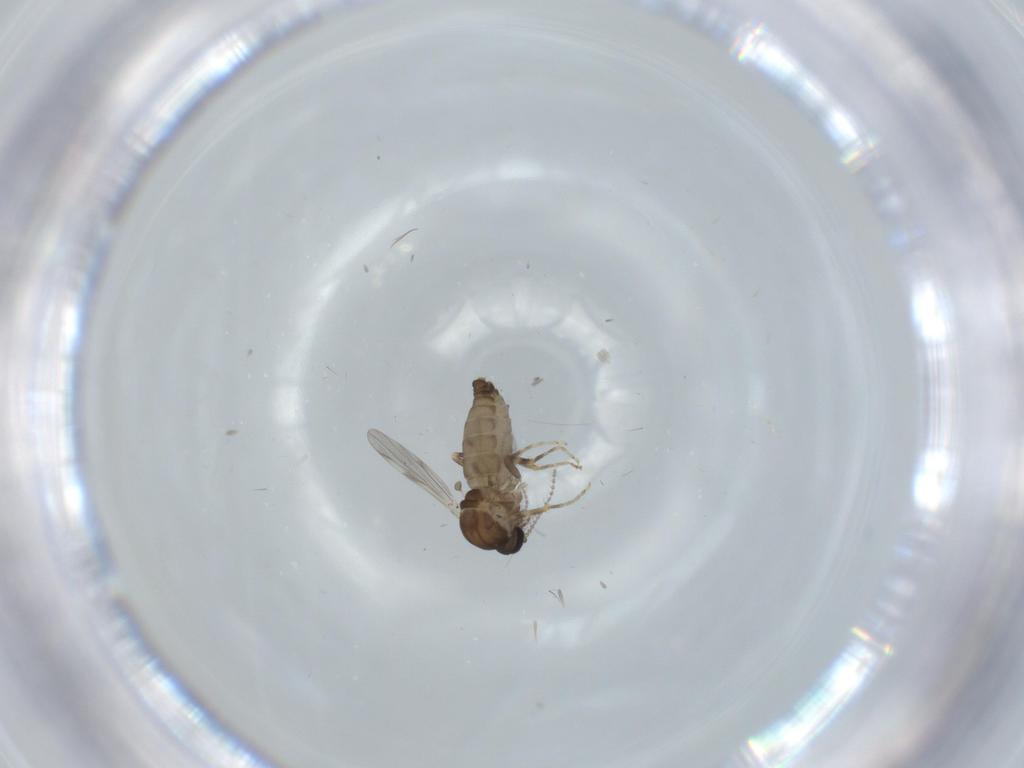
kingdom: Animalia
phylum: Arthropoda
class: Insecta
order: Diptera
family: Ceratopogonidae
